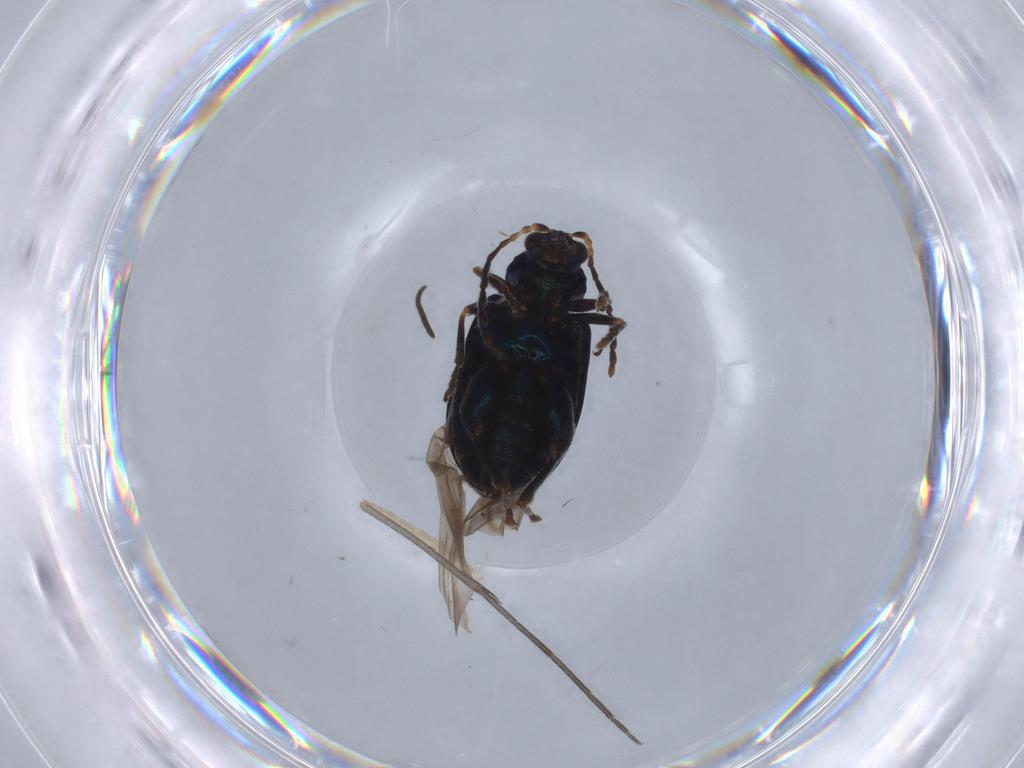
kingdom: Animalia
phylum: Arthropoda
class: Insecta
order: Coleoptera
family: Chrysomelidae
